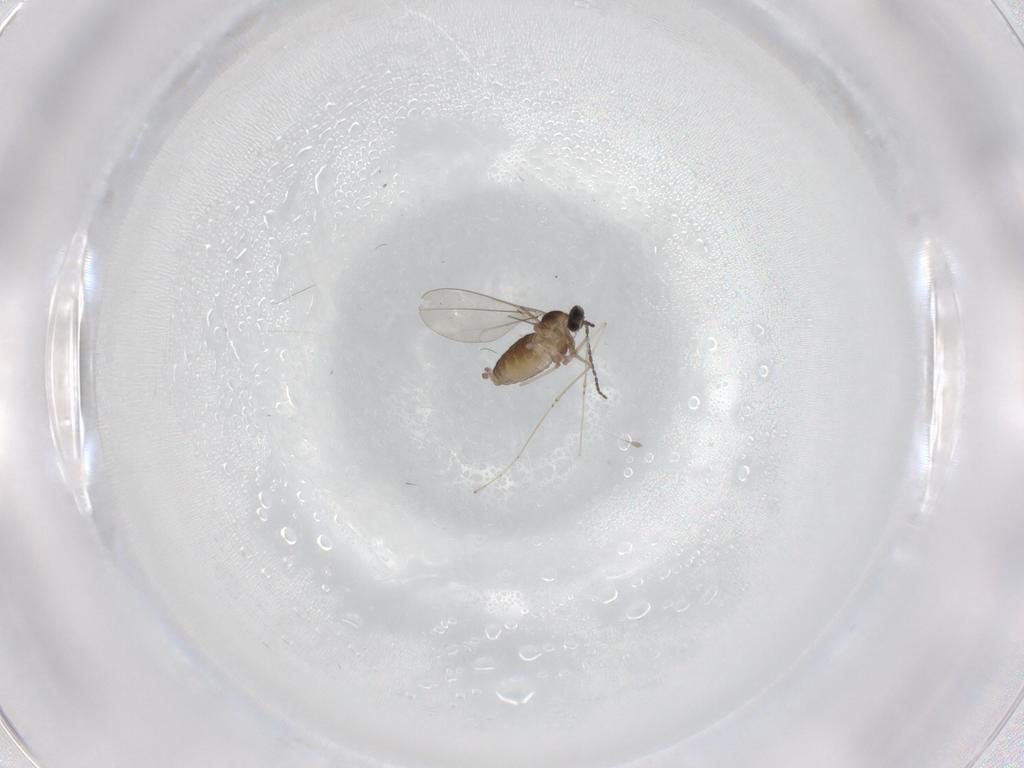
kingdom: Animalia
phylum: Arthropoda
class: Insecta
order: Diptera
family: Cecidomyiidae
